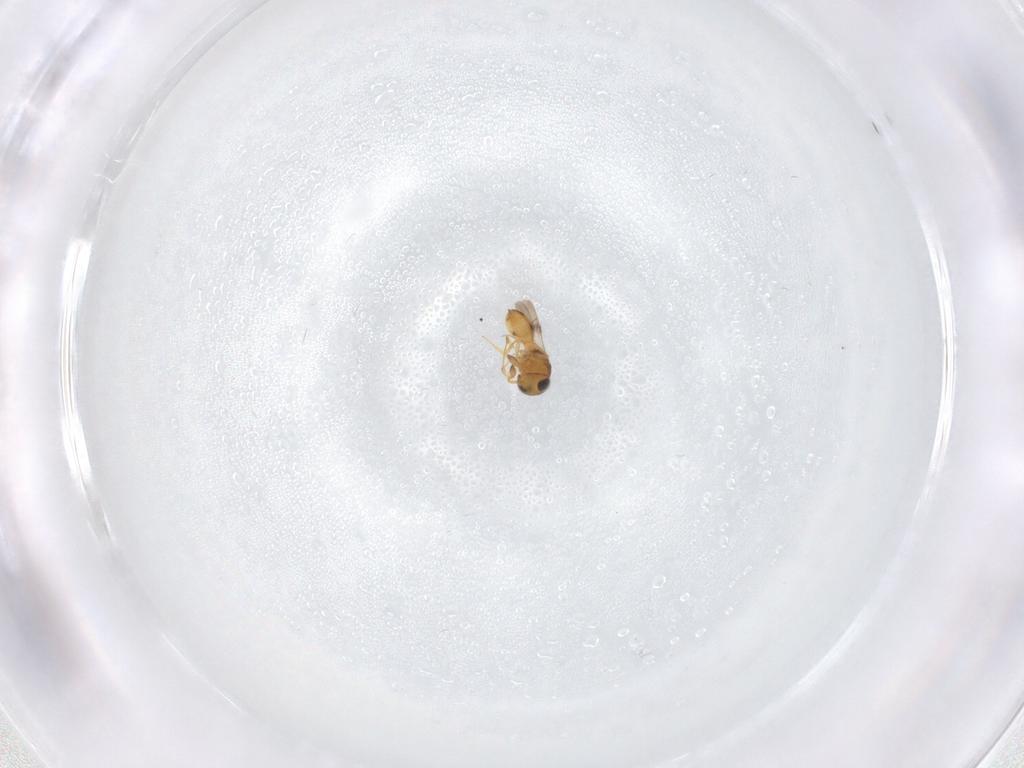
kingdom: Animalia
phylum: Arthropoda
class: Insecta
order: Hymenoptera
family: Scelionidae
